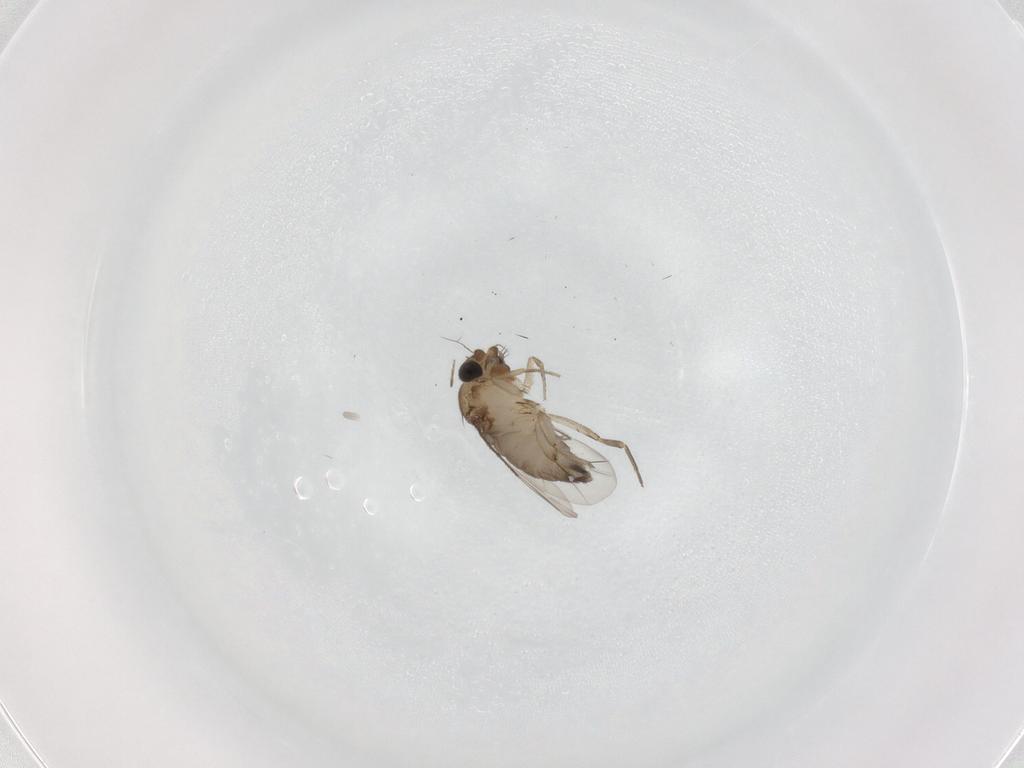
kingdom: Animalia
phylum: Arthropoda
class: Insecta
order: Diptera
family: Phoridae
